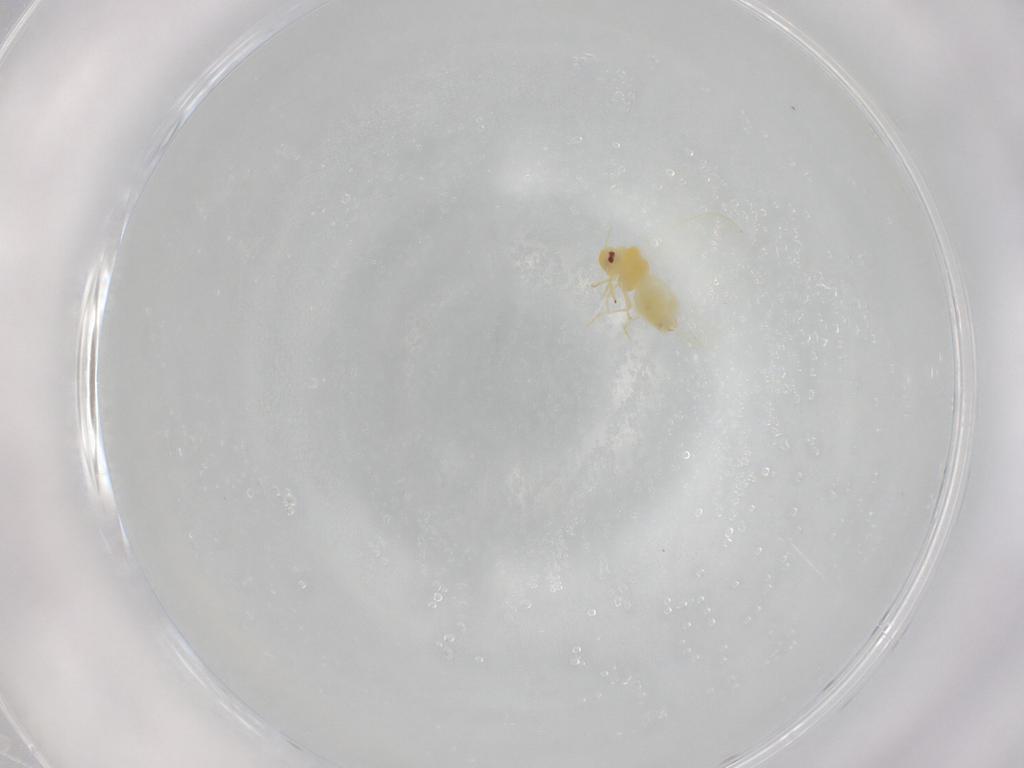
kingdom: Animalia
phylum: Arthropoda
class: Insecta
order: Hemiptera
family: Aleyrodidae
